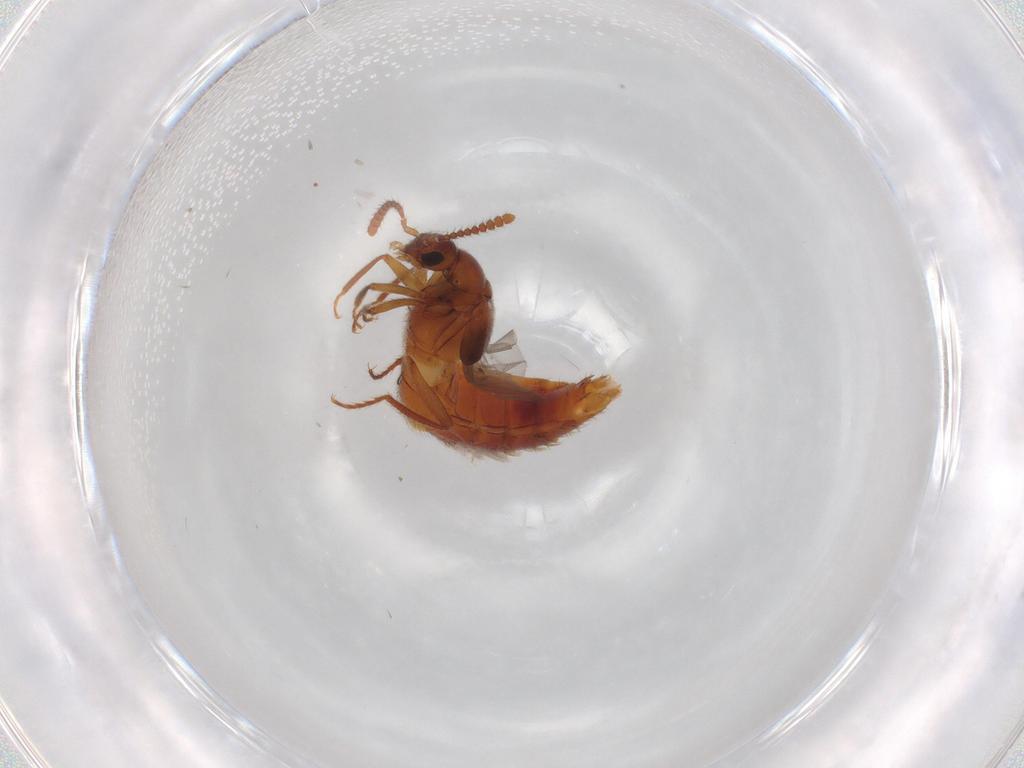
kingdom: Animalia
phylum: Arthropoda
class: Insecta
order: Coleoptera
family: Staphylinidae
